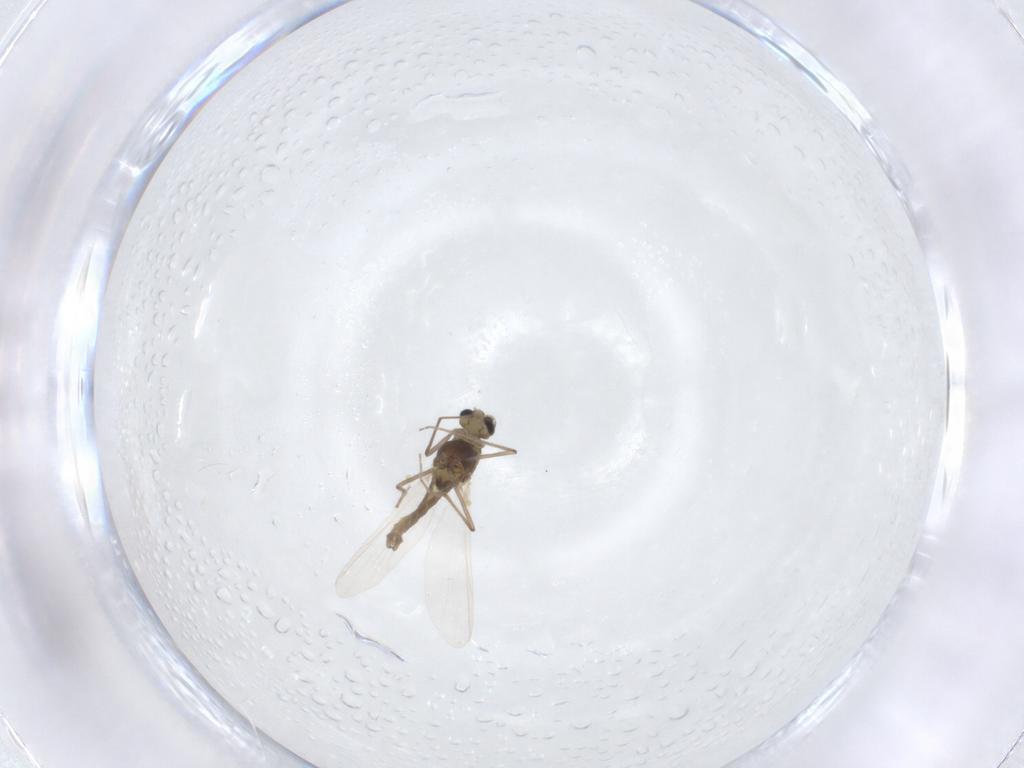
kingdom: Animalia
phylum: Arthropoda
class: Insecta
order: Diptera
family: Chironomidae
